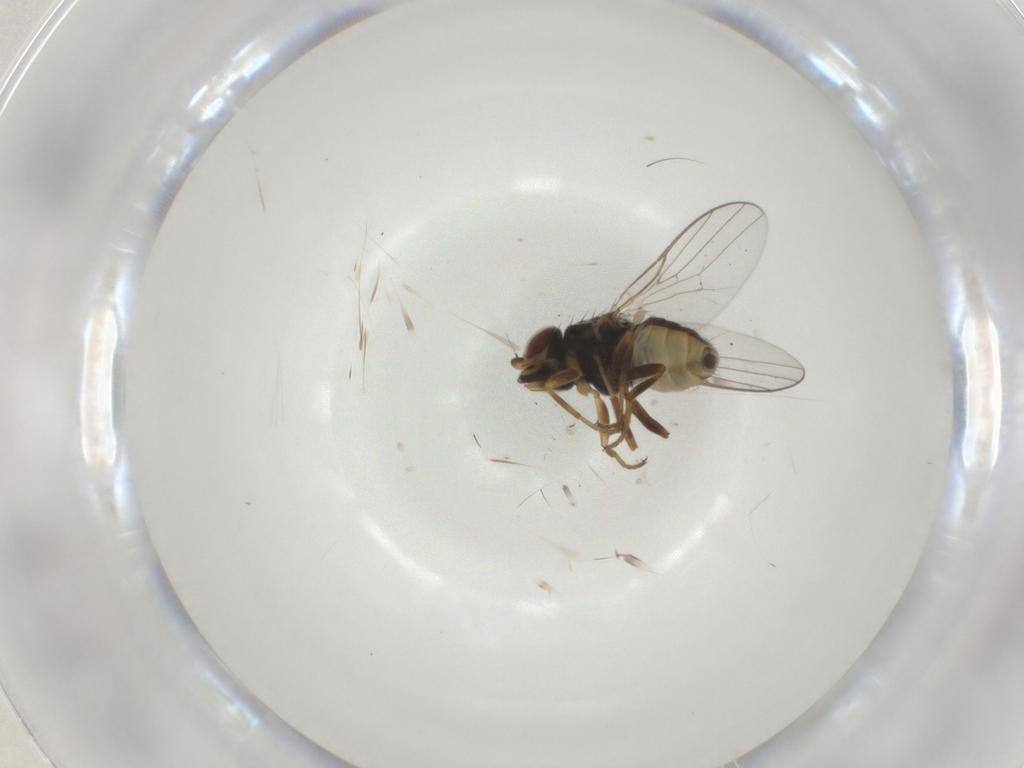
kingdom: Animalia
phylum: Arthropoda
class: Insecta
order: Diptera
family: Chloropidae
